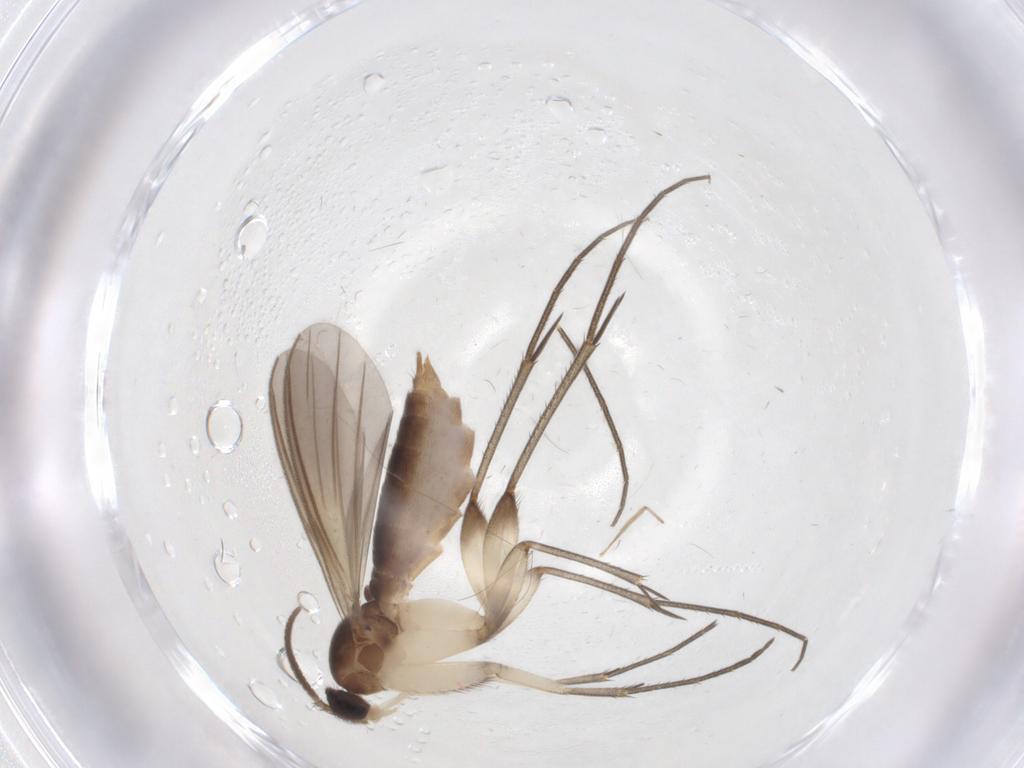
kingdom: Animalia
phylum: Arthropoda
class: Insecta
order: Diptera
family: Mycetophilidae
